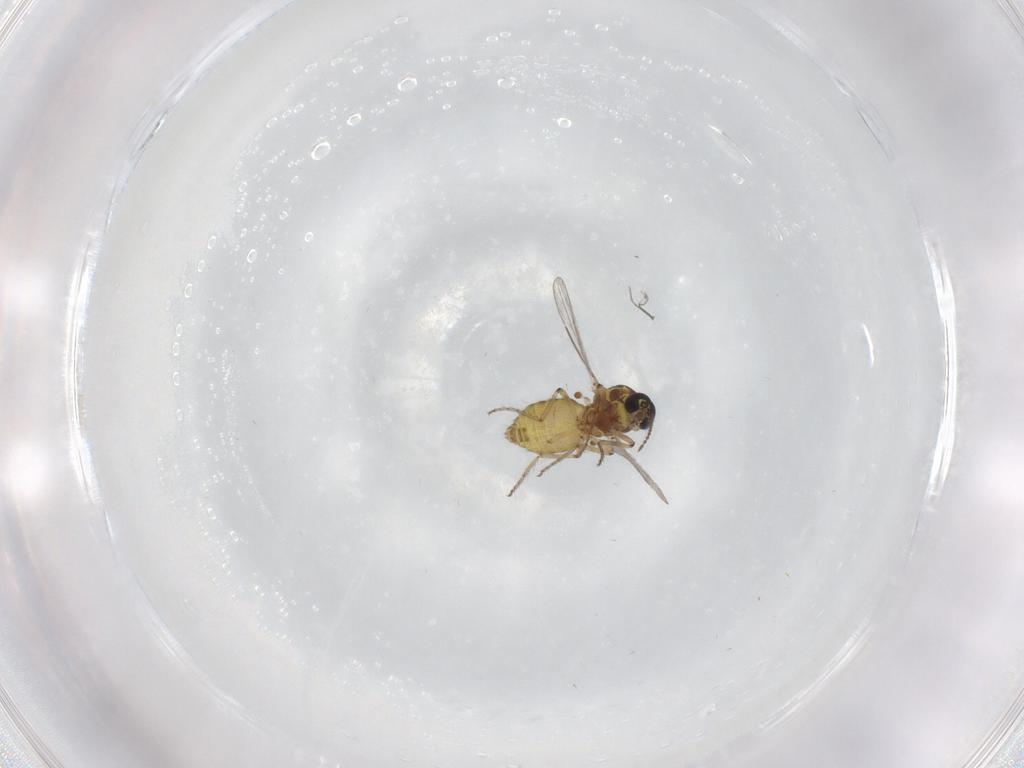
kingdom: Animalia
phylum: Arthropoda
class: Insecta
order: Diptera
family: Ceratopogonidae
